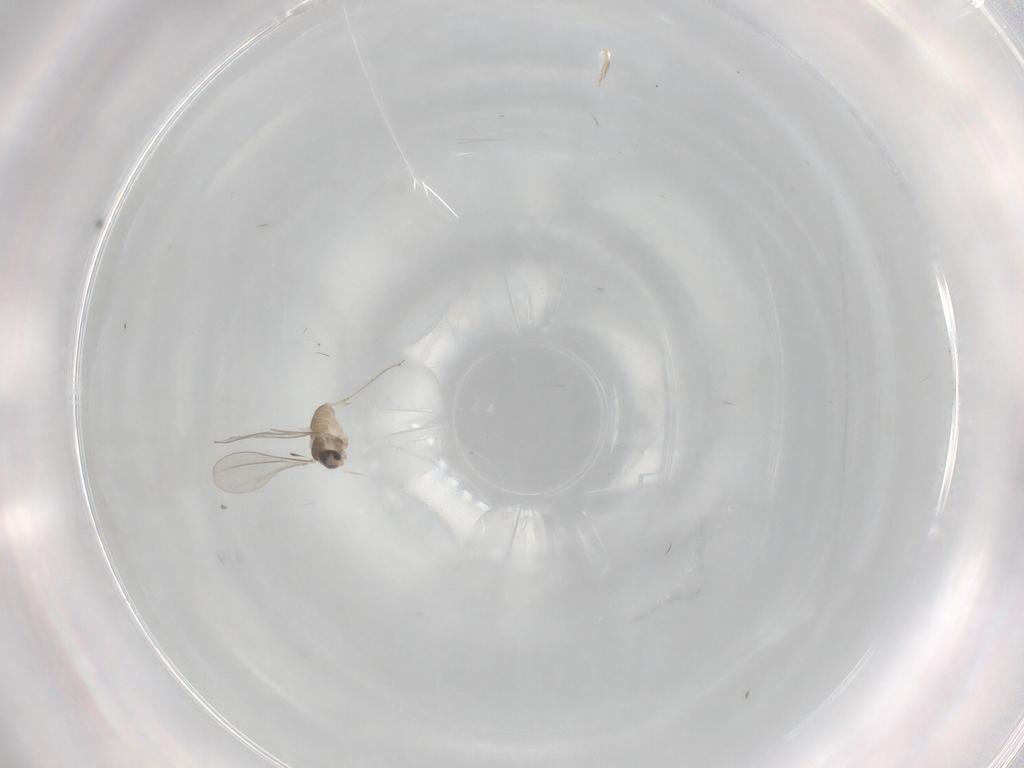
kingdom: Animalia
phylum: Arthropoda
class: Insecta
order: Diptera
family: Cecidomyiidae
